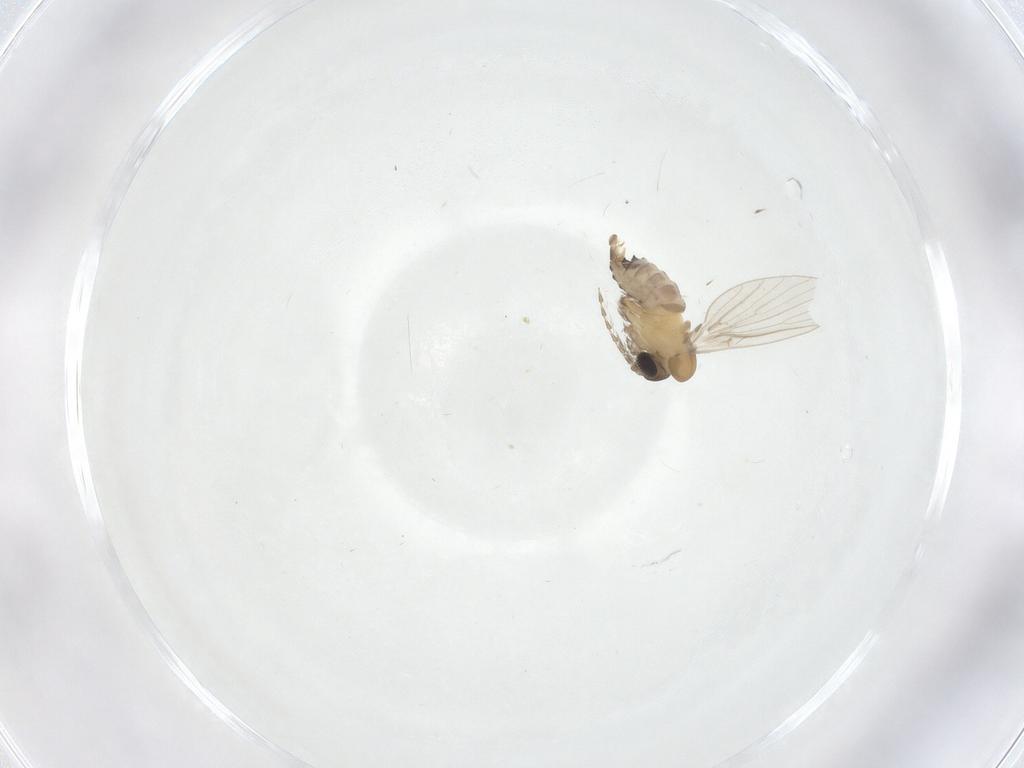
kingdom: Animalia
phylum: Arthropoda
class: Insecta
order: Diptera
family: Psychodidae
